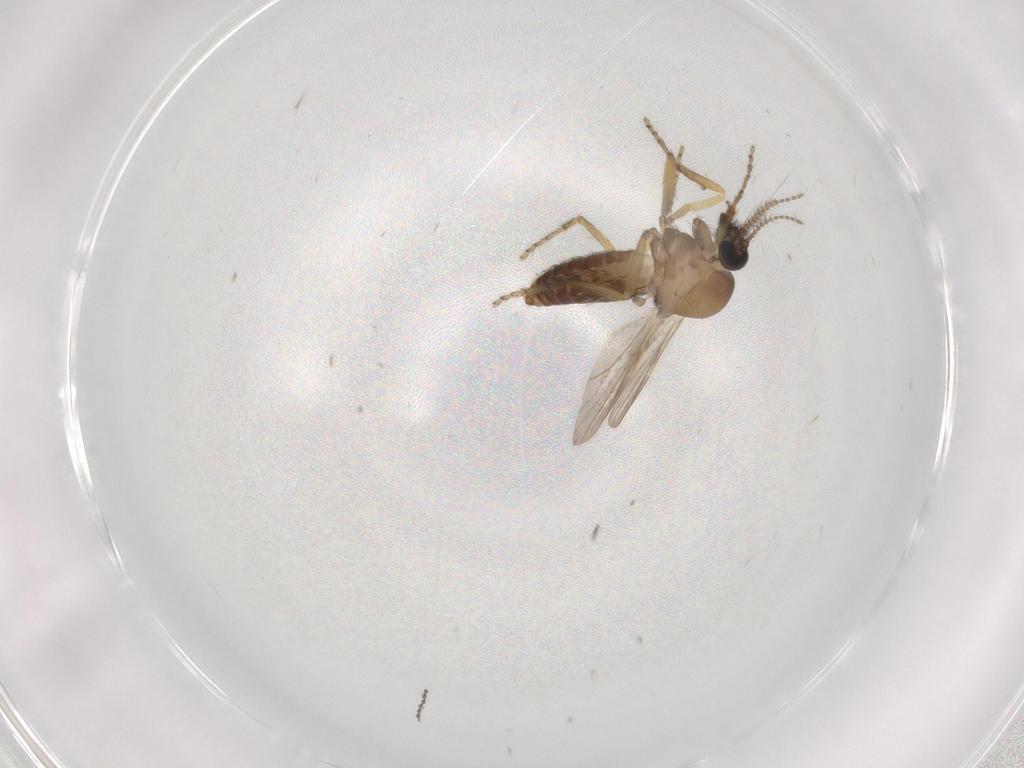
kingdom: Animalia
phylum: Arthropoda
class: Insecta
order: Diptera
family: Ceratopogonidae
